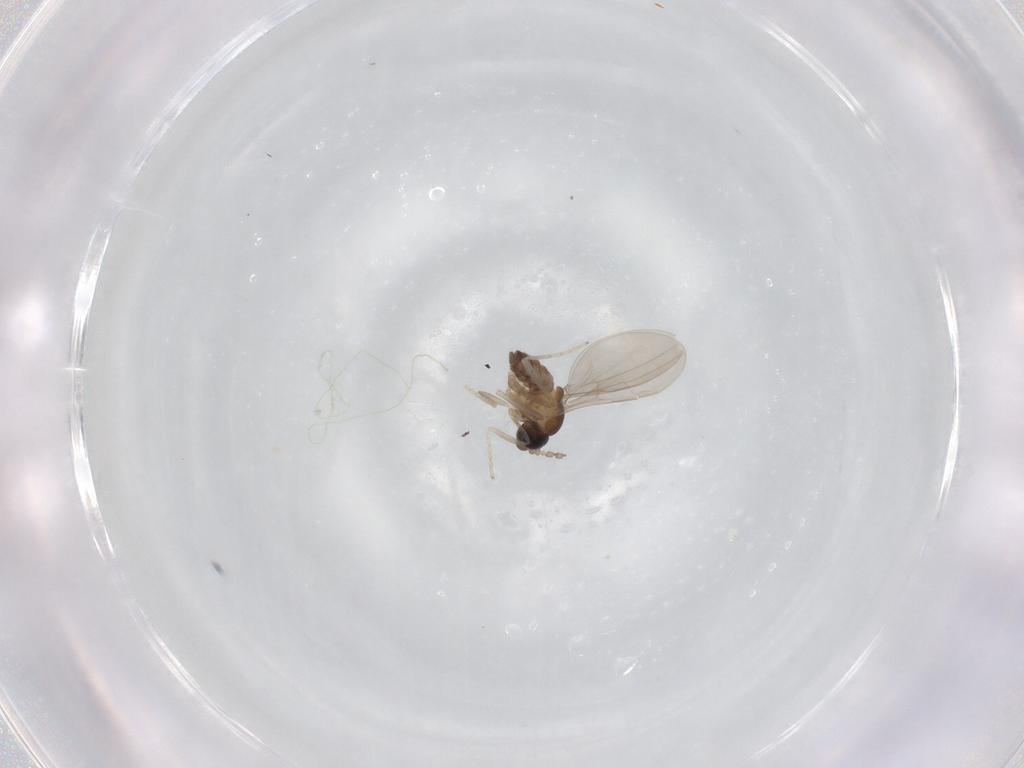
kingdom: Animalia
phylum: Arthropoda
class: Insecta
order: Diptera
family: Cecidomyiidae
